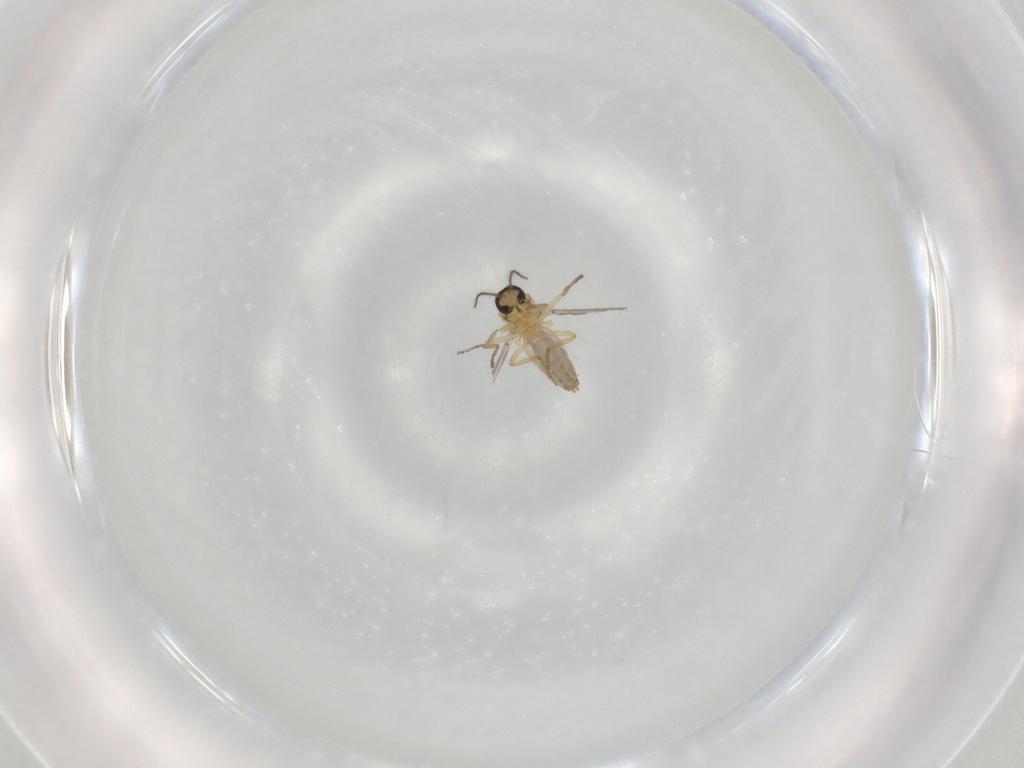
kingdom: Animalia
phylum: Arthropoda
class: Insecta
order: Diptera
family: Ceratopogonidae
